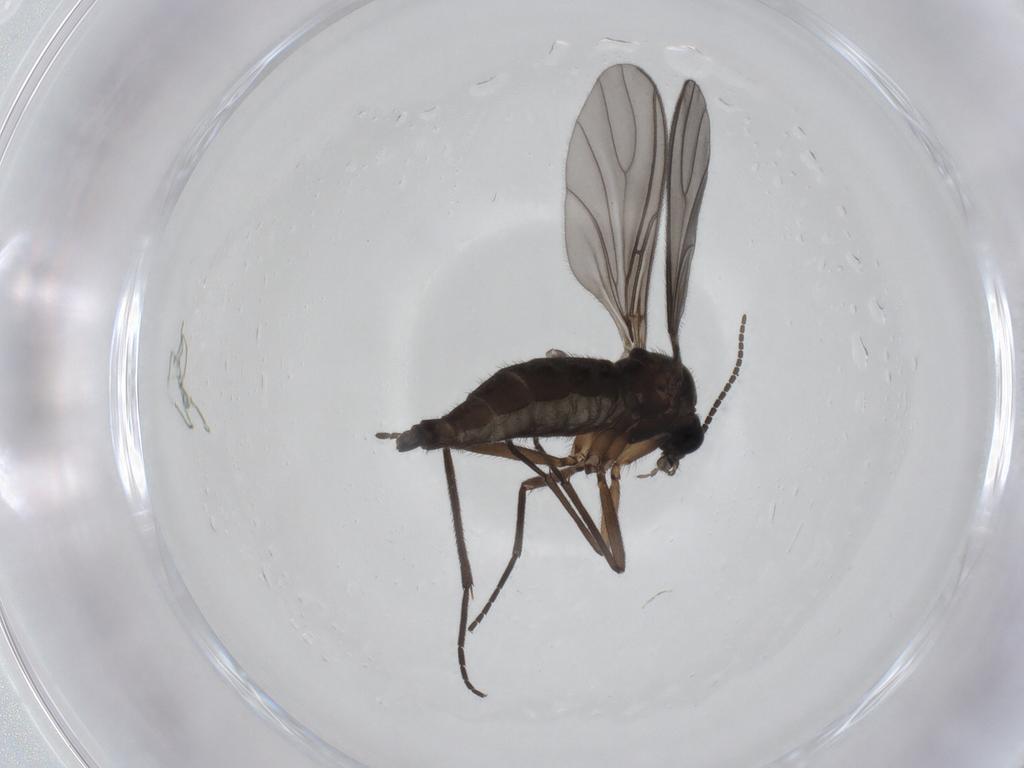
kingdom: Animalia
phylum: Arthropoda
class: Insecta
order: Diptera
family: Sciaridae
